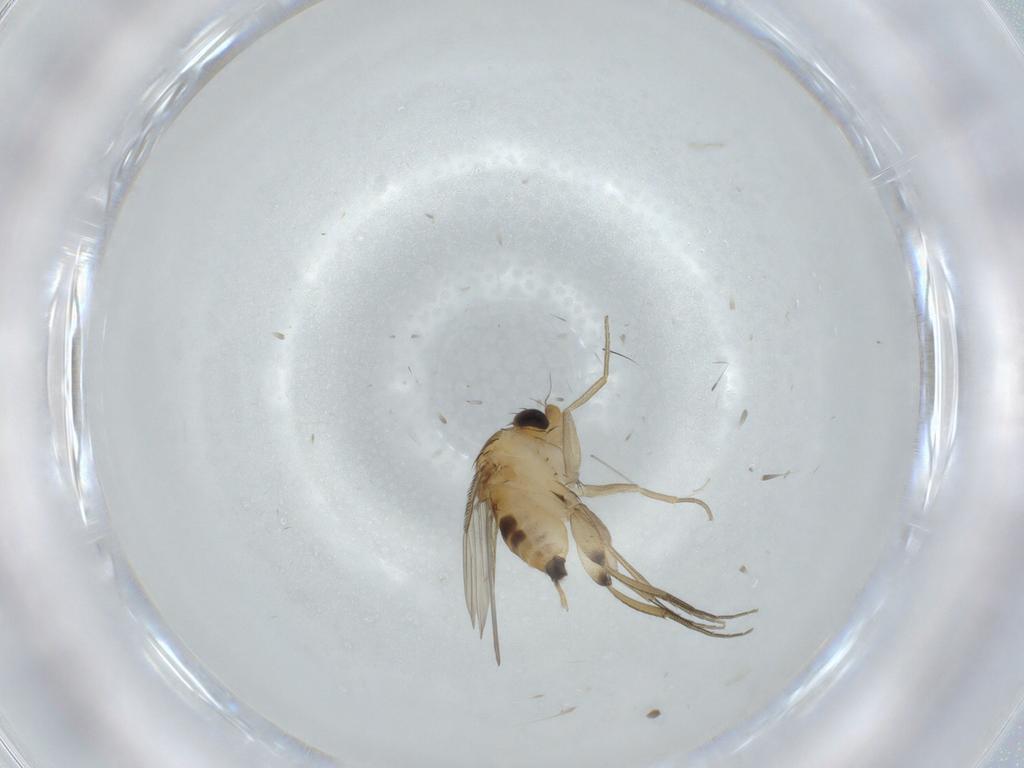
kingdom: Animalia
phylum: Arthropoda
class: Insecta
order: Diptera
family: Phoridae
